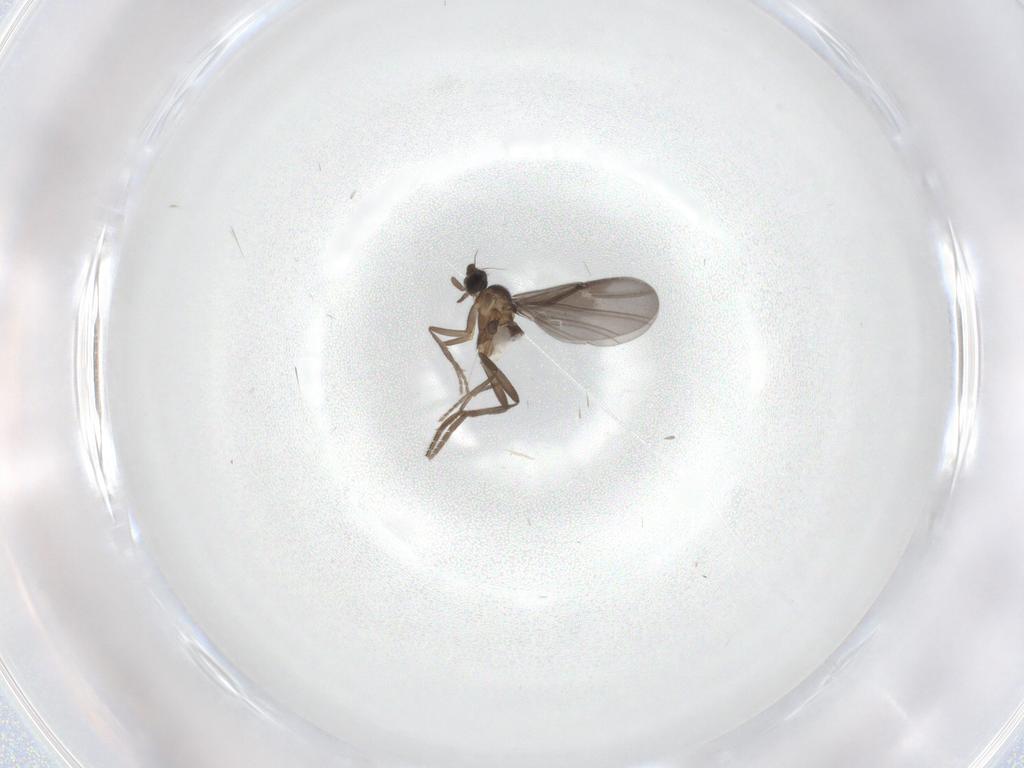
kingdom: Animalia
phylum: Arthropoda
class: Insecta
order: Diptera
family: Phoridae
